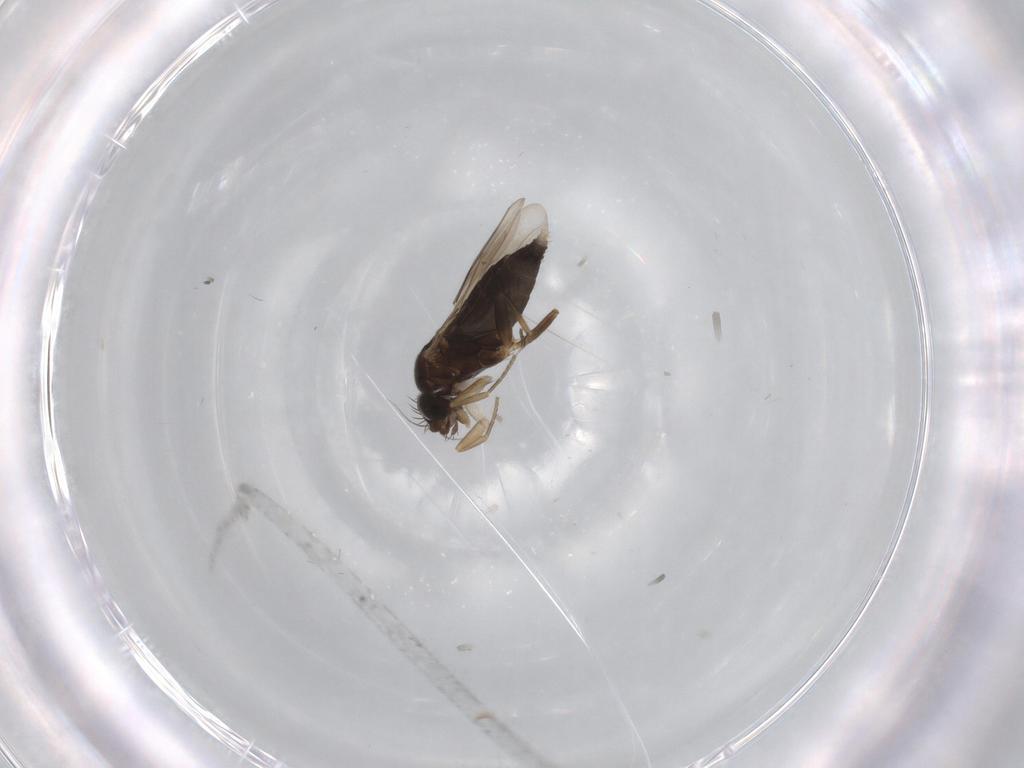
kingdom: Animalia
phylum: Arthropoda
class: Insecta
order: Diptera
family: Phoridae
